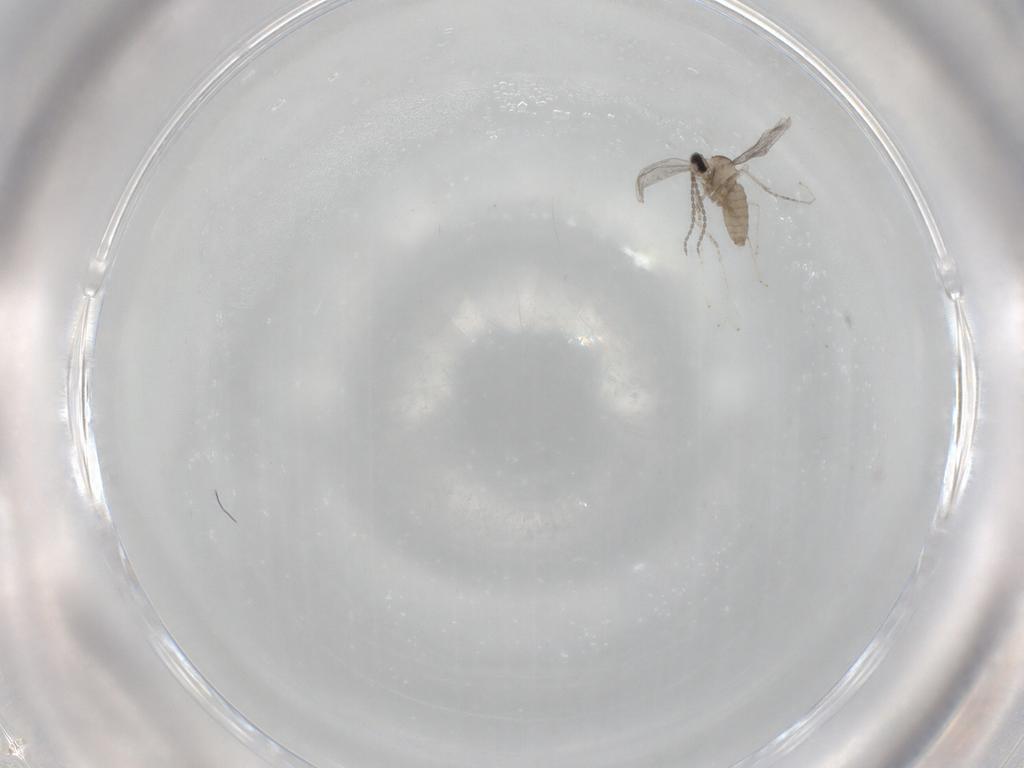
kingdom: Animalia
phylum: Arthropoda
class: Insecta
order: Diptera
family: Cecidomyiidae
